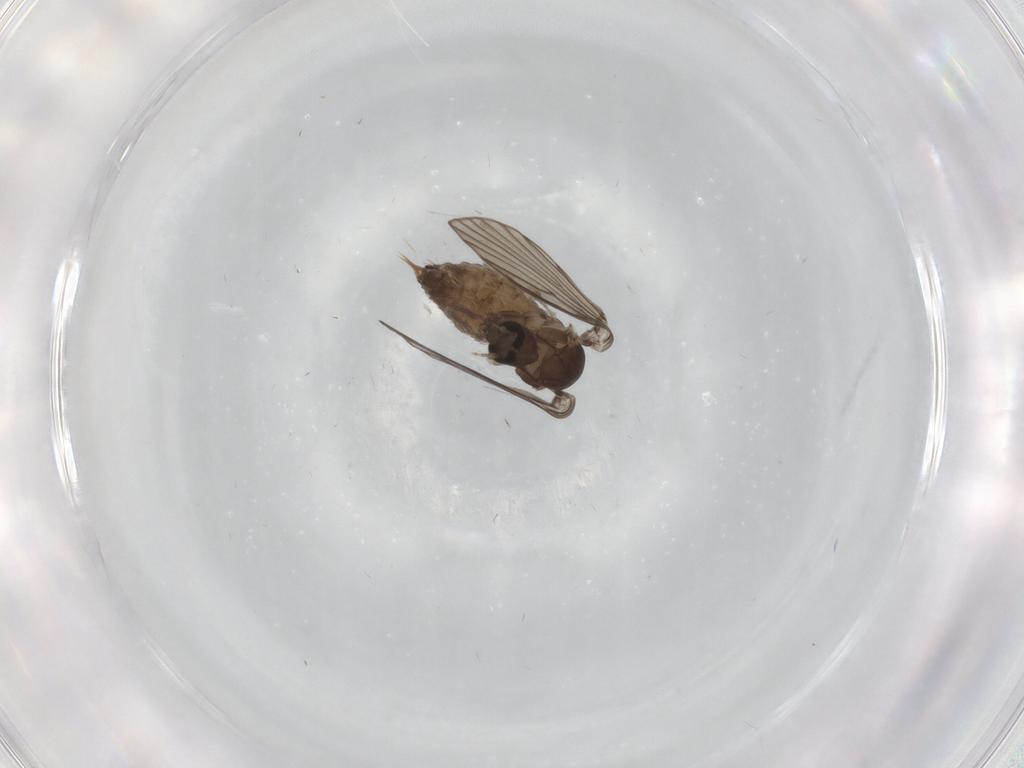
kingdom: Animalia
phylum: Arthropoda
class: Insecta
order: Diptera
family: Psychodidae
